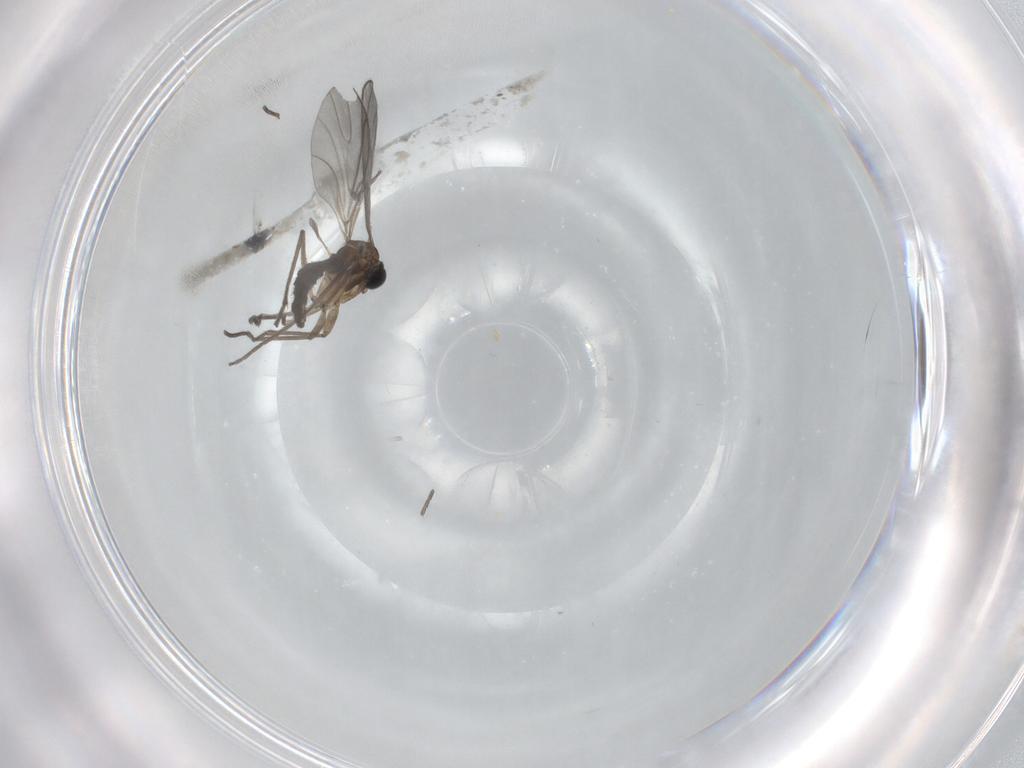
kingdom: Animalia
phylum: Arthropoda
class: Insecta
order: Diptera
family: Sciaridae
